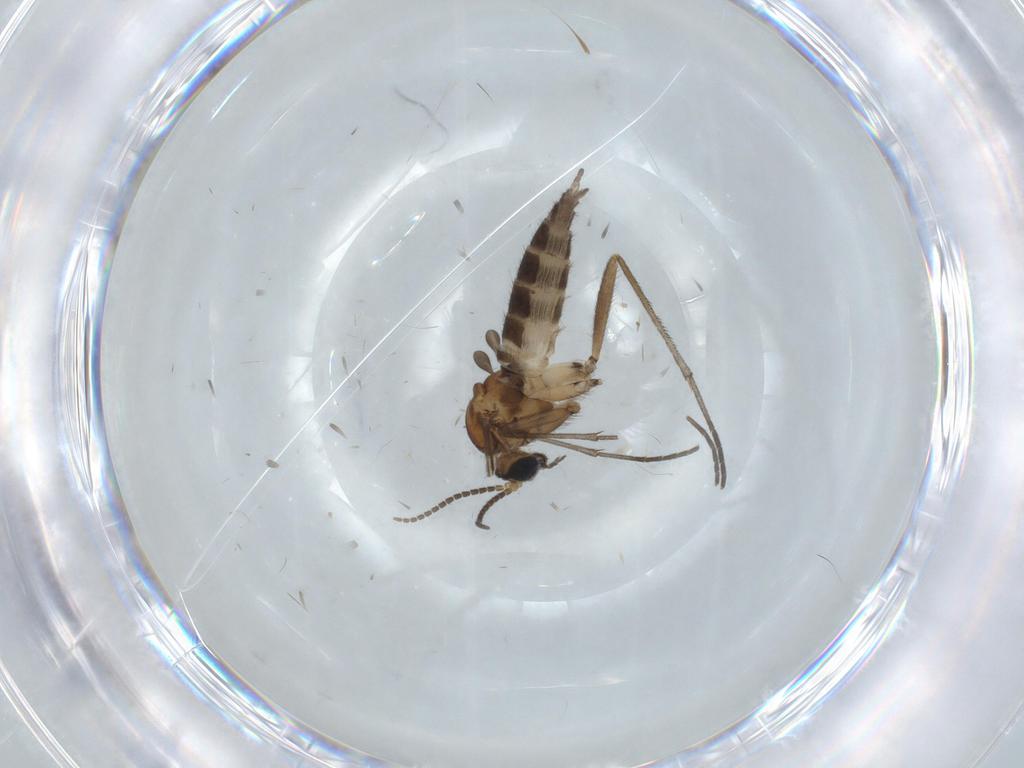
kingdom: Animalia
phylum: Arthropoda
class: Insecta
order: Diptera
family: Sciaridae
